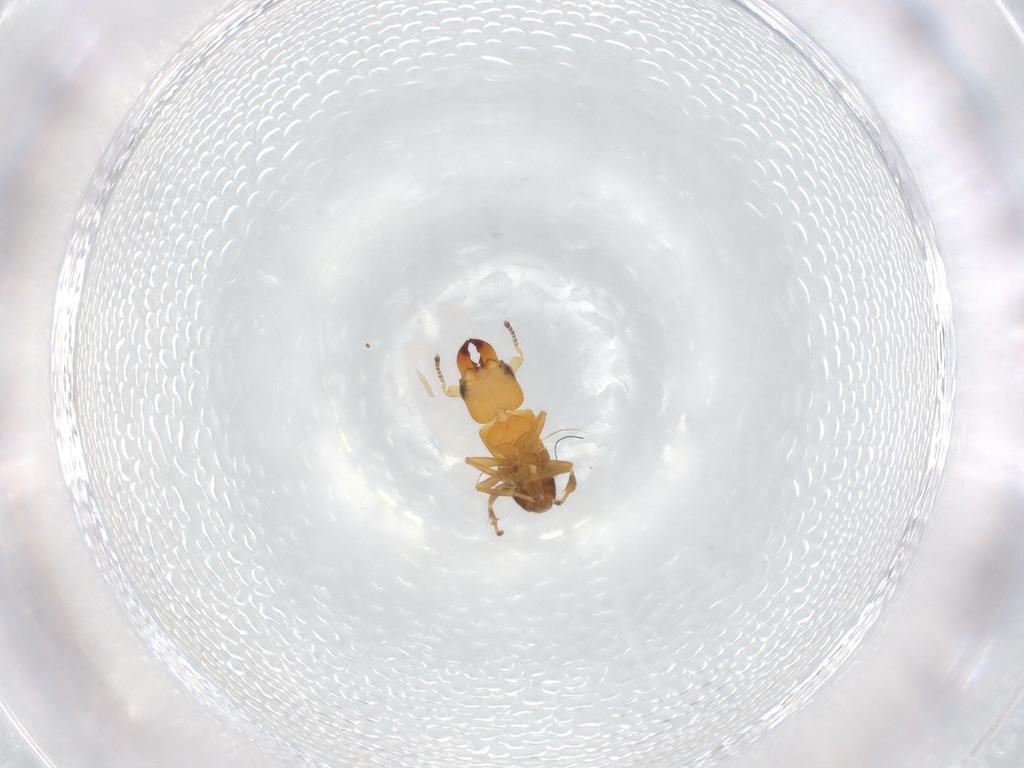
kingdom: Animalia
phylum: Arthropoda
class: Insecta
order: Hymenoptera
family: Pteromalidae
